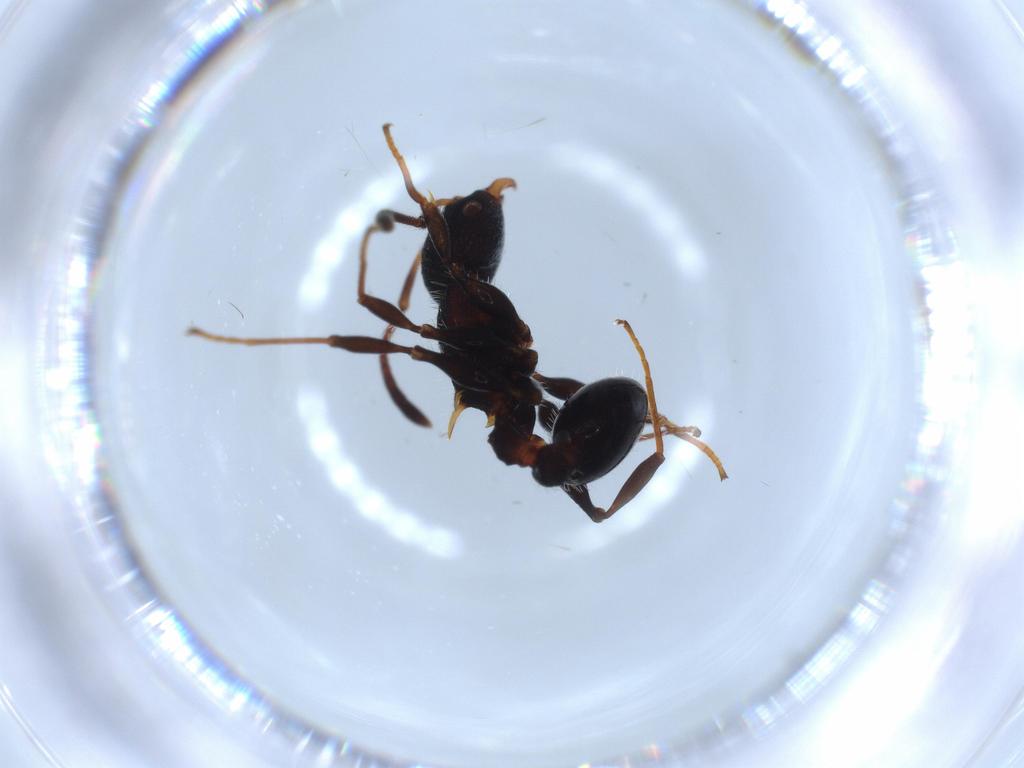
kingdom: Animalia
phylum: Arthropoda
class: Insecta
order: Hymenoptera
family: Formicidae
